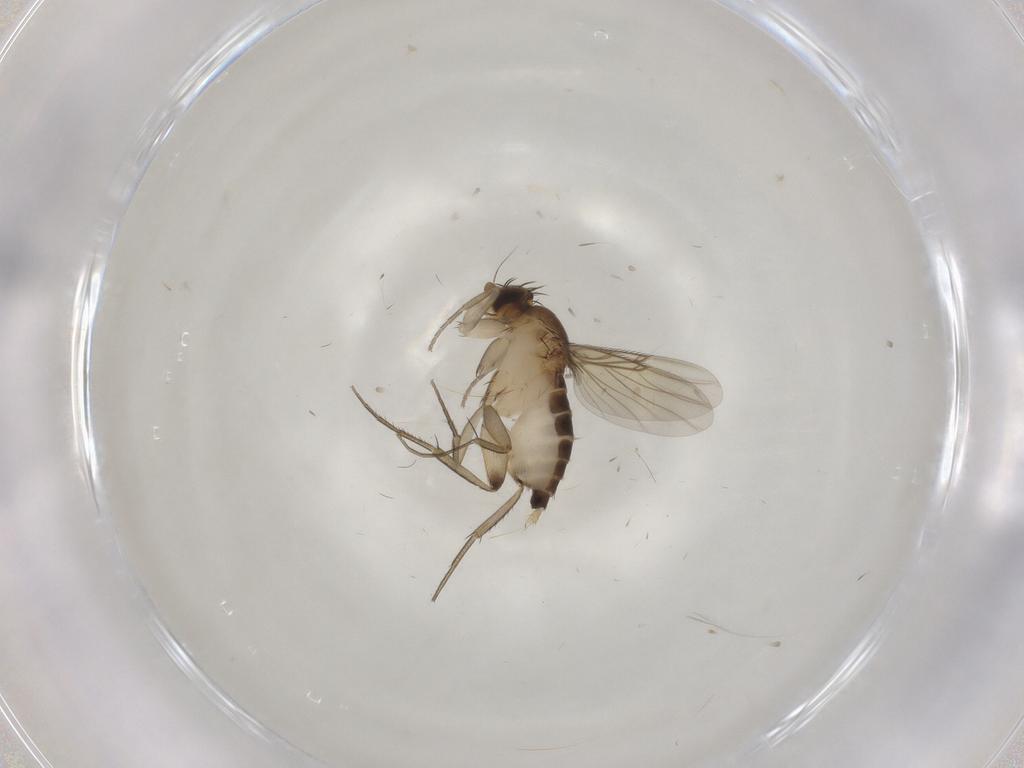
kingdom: Animalia
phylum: Arthropoda
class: Insecta
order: Diptera
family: Phoridae
